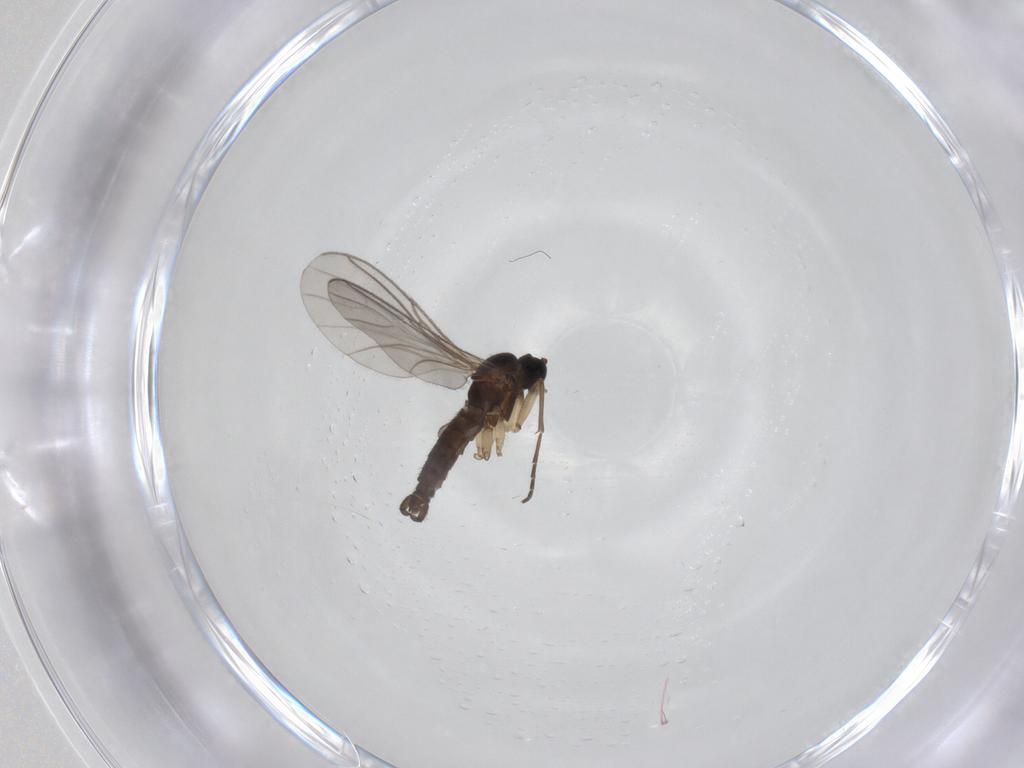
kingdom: Animalia
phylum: Arthropoda
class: Insecta
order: Diptera
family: Sciaridae
